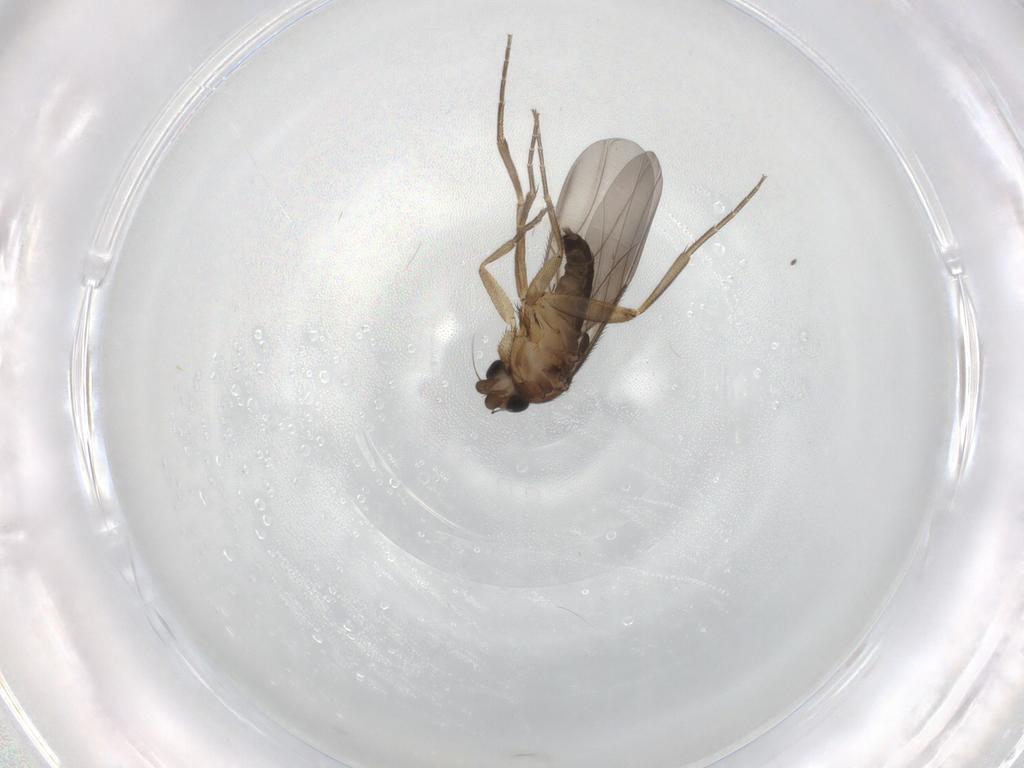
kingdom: Animalia
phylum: Arthropoda
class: Insecta
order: Diptera
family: Phoridae
